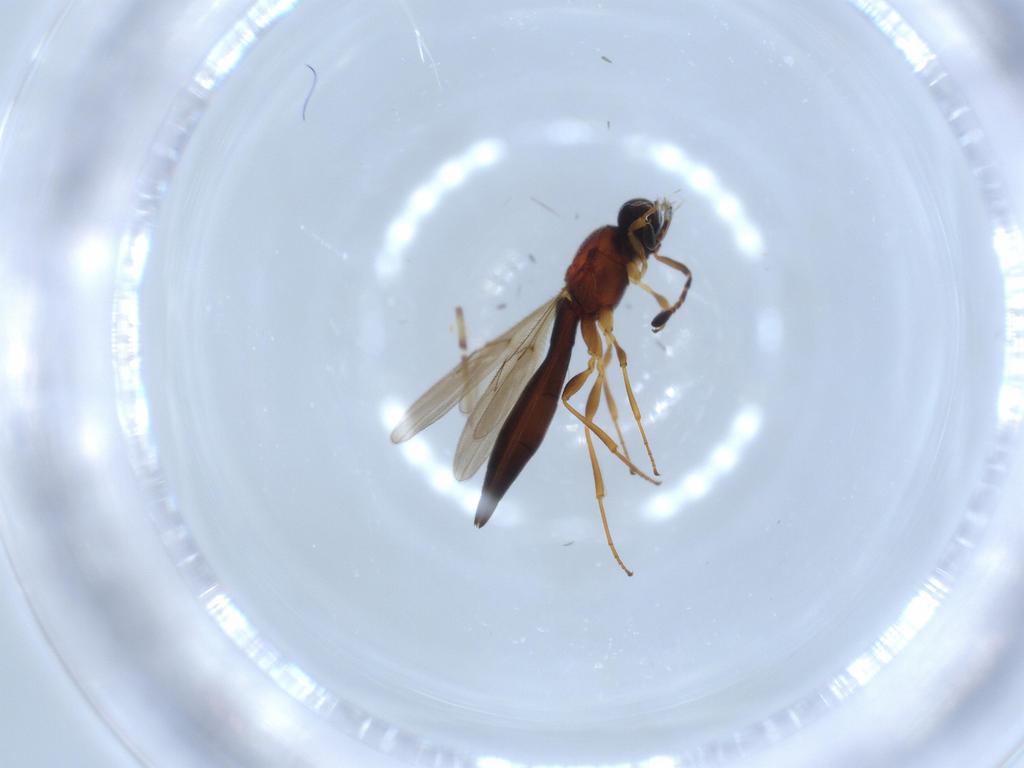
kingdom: Animalia
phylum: Arthropoda
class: Insecta
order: Hymenoptera
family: Scelionidae
